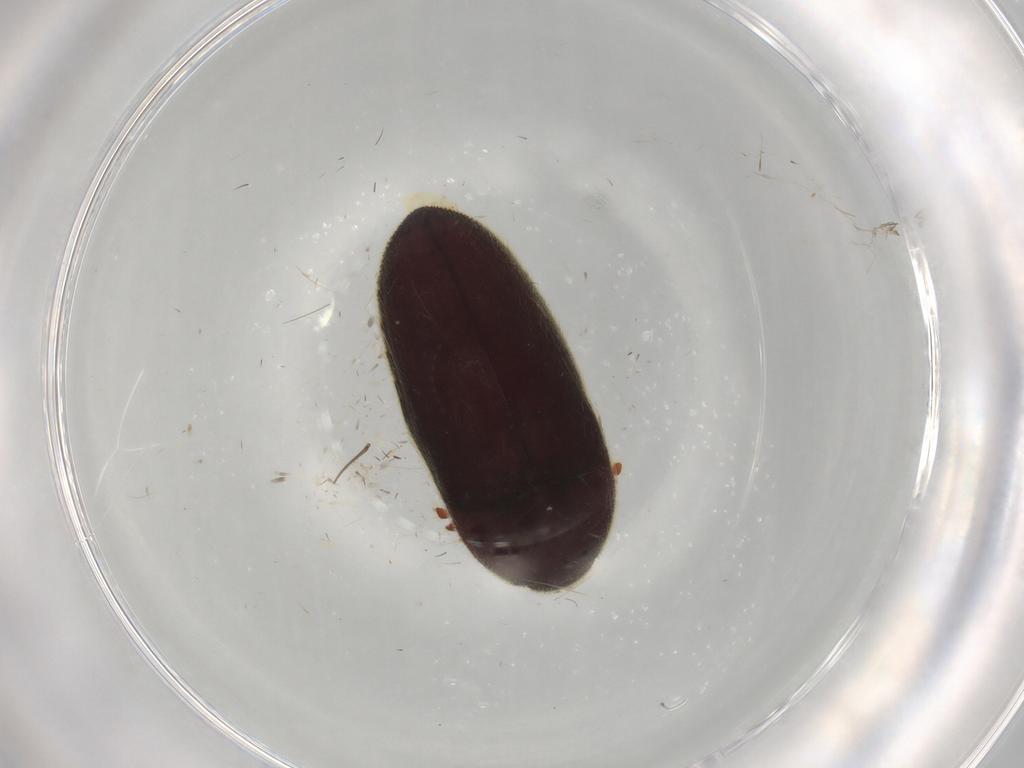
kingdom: Animalia
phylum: Arthropoda
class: Insecta
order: Coleoptera
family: Throscidae
